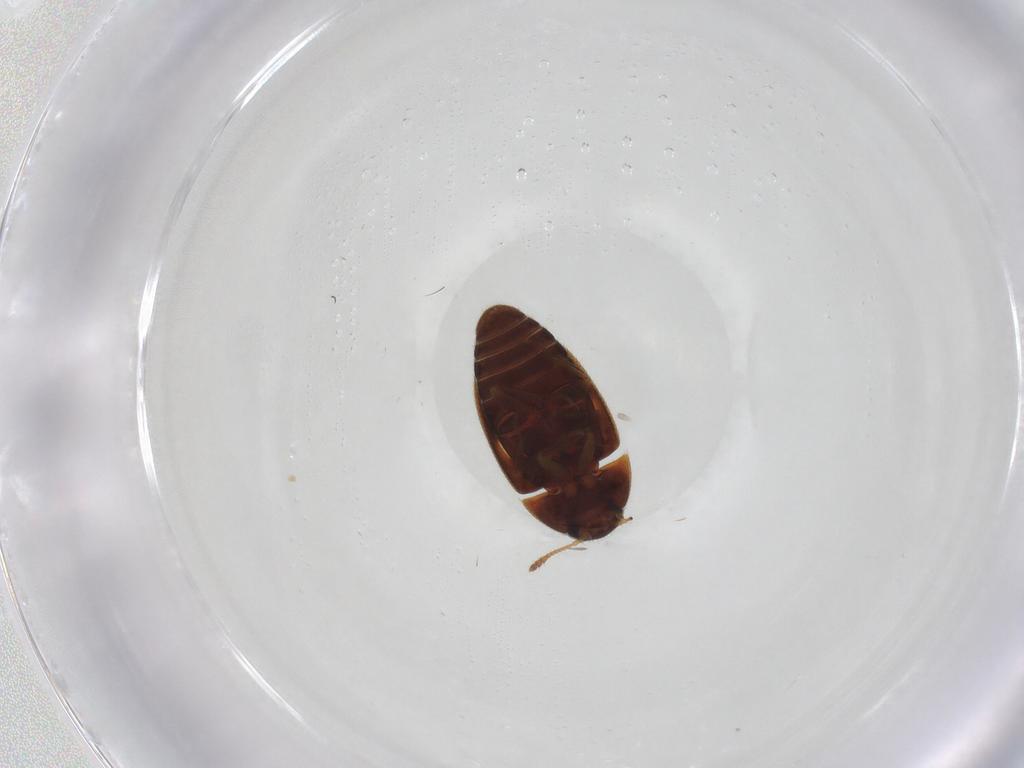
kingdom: Animalia
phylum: Arthropoda
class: Insecta
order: Coleoptera
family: Mycetophagidae
